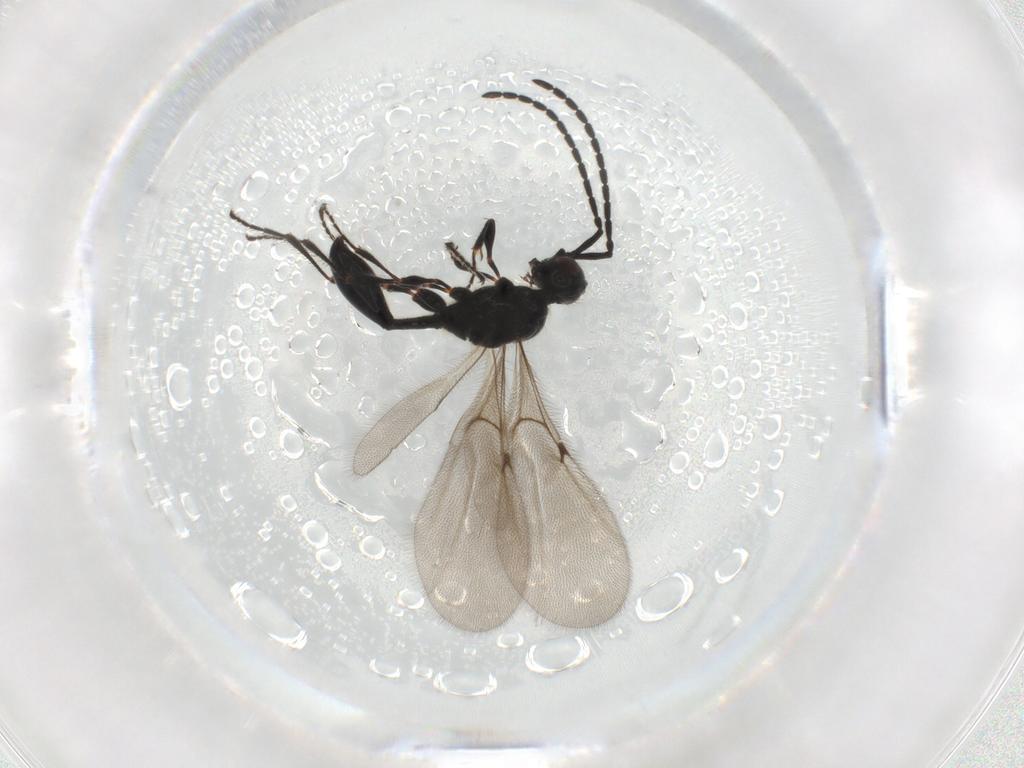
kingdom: Animalia
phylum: Arthropoda
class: Insecta
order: Hymenoptera
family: Diapriidae
